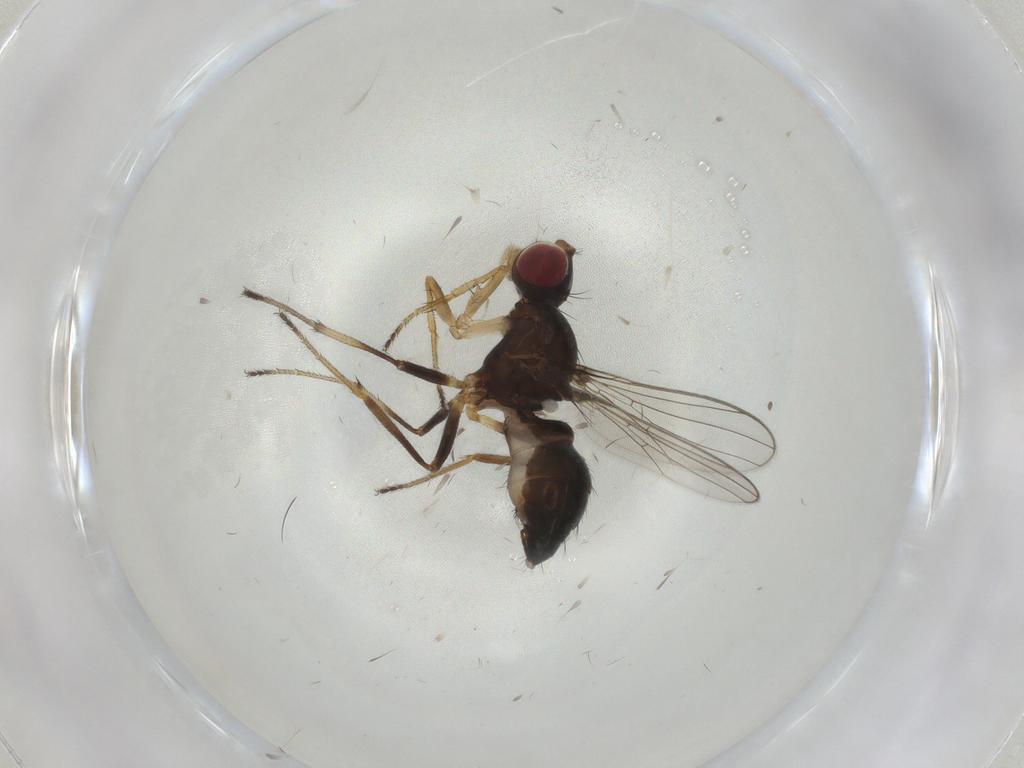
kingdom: Animalia
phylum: Arthropoda
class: Insecta
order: Diptera
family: Sepsidae
